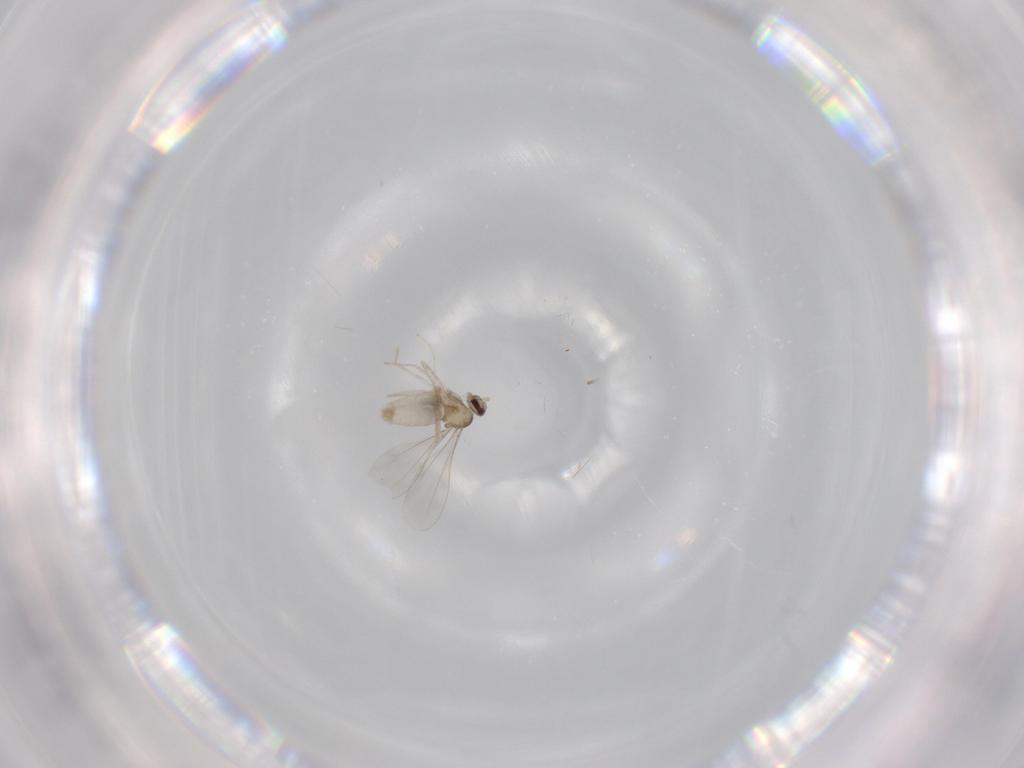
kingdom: Animalia
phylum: Arthropoda
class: Insecta
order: Diptera
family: Cecidomyiidae
